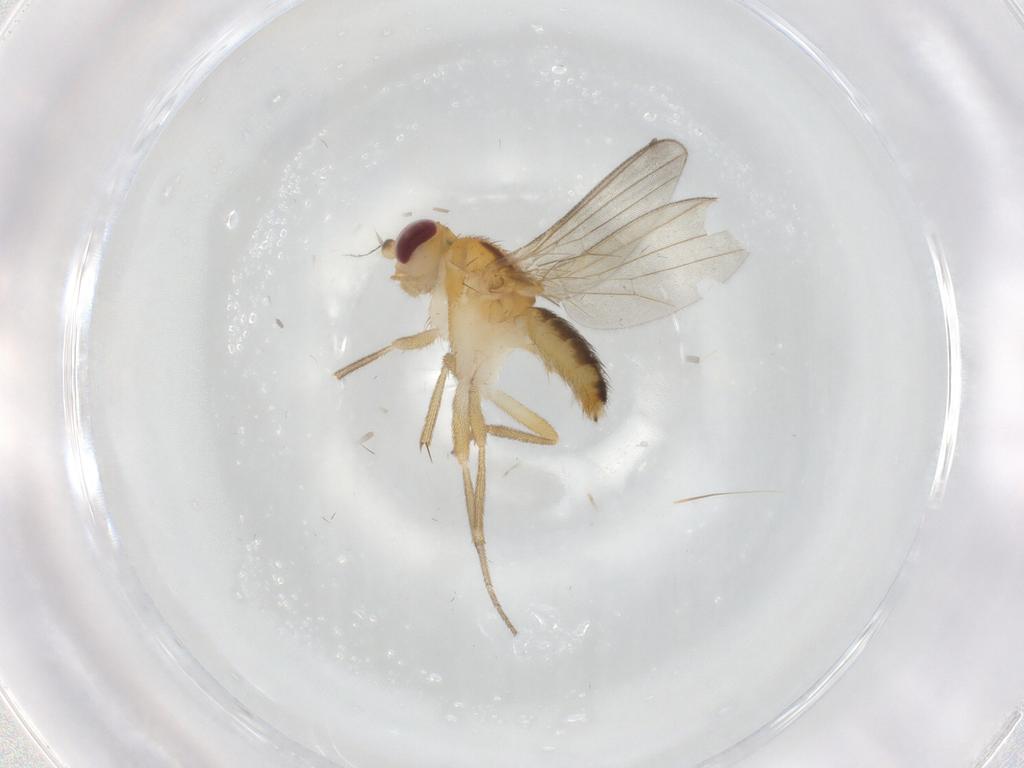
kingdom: Animalia
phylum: Arthropoda
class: Insecta
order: Diptera
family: Clusiidae
